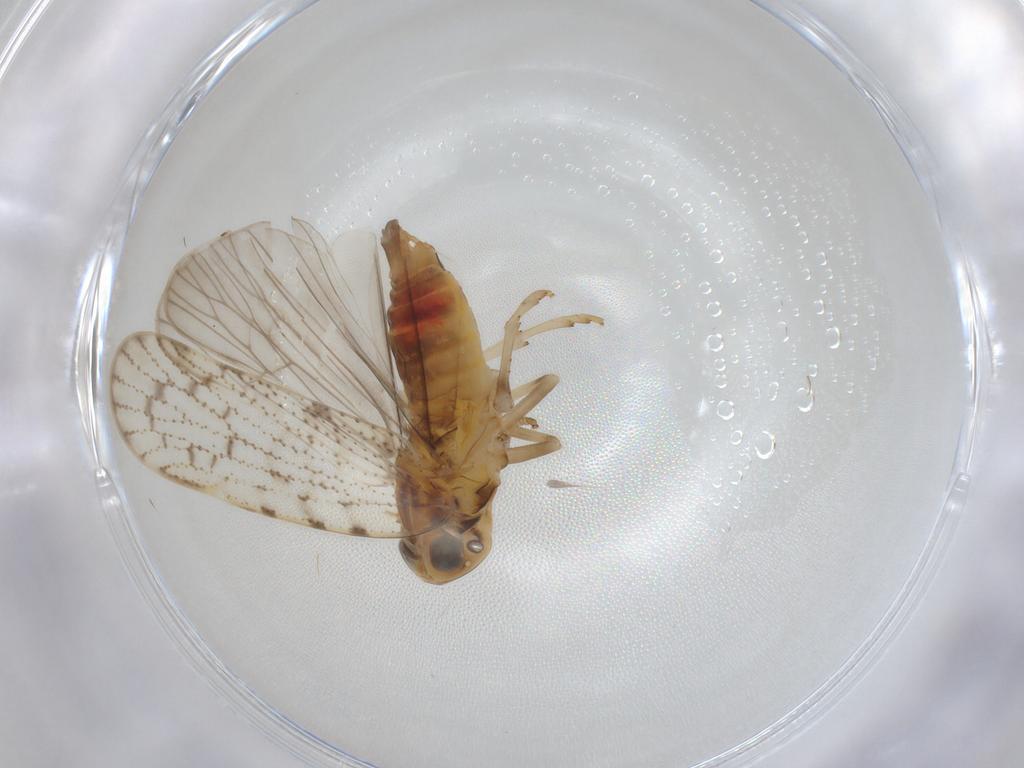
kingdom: Animalia
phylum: Arthropoda
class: Insecta
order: Diptera
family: Ceratopogonidae
